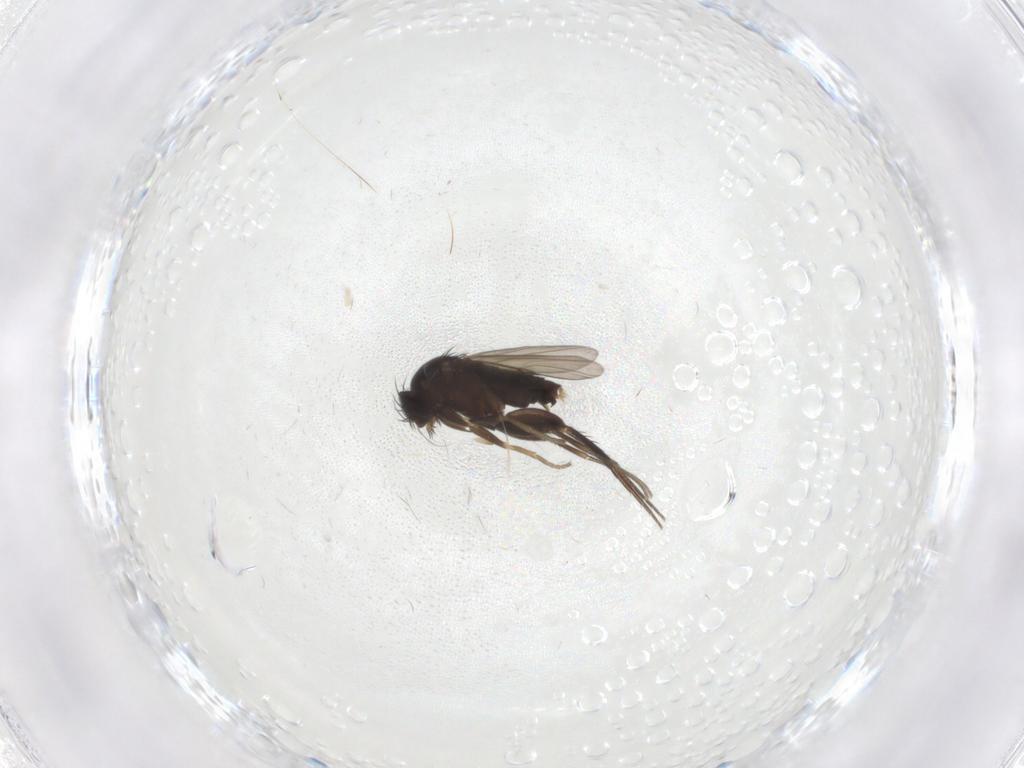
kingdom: Animalia
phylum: Arthropoda
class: Insecta
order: Diptera
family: Phoridae
